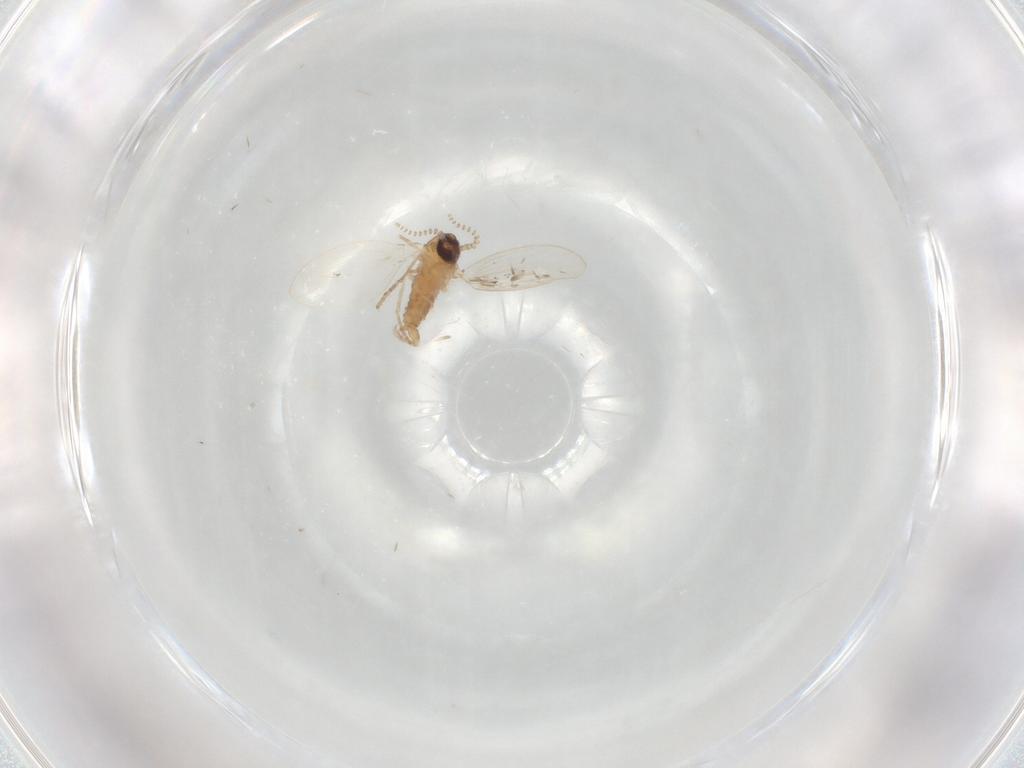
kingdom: Animalia
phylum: Arthropoda
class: Insecta
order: Diptera
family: Psychodidae
